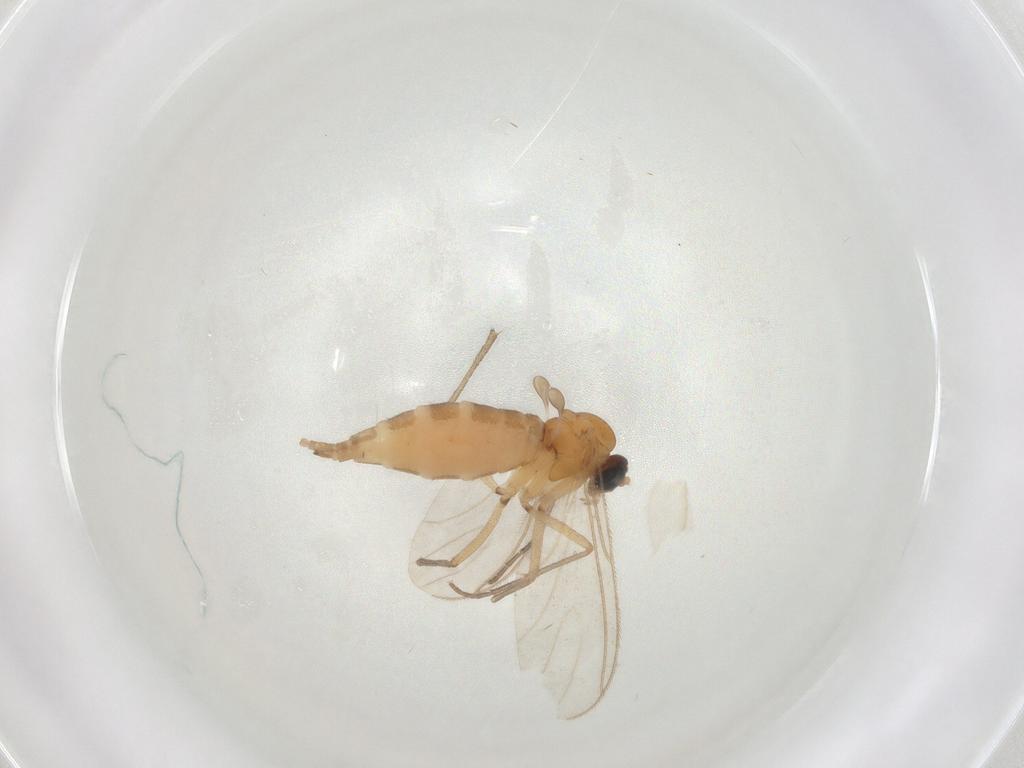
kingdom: Animalia
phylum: Arthropoda
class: Insecta
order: Diptera
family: Sciaridae
